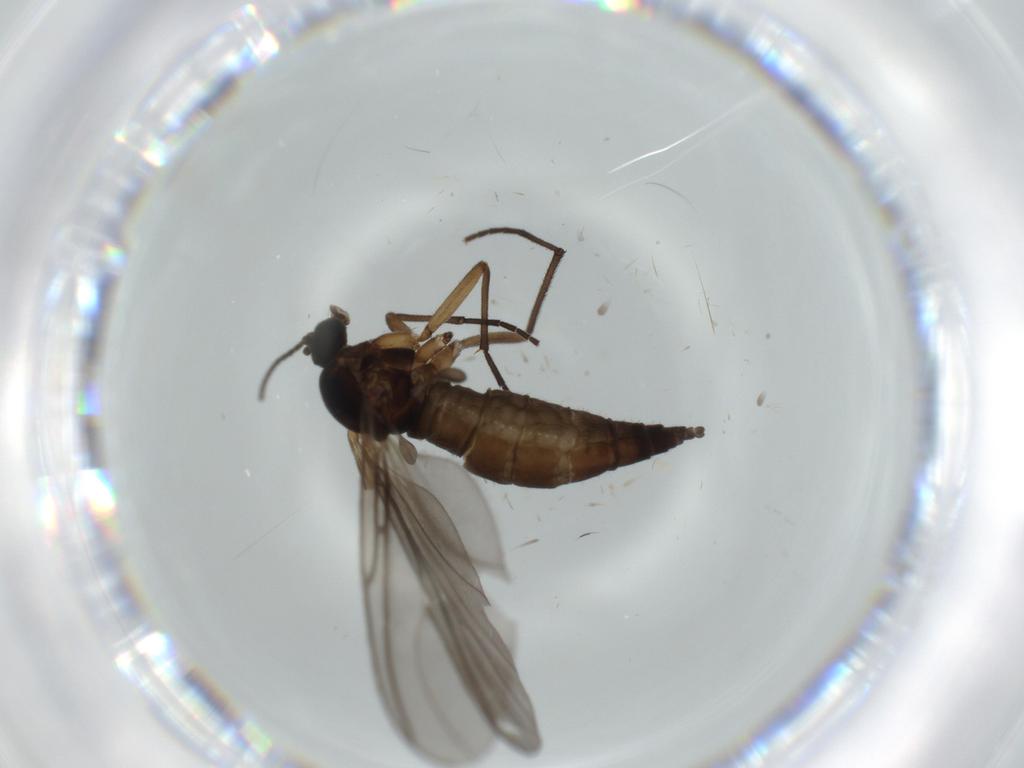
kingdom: Animalia
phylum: Arthropoda
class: Insecta
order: Diptera
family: Sciaridae
